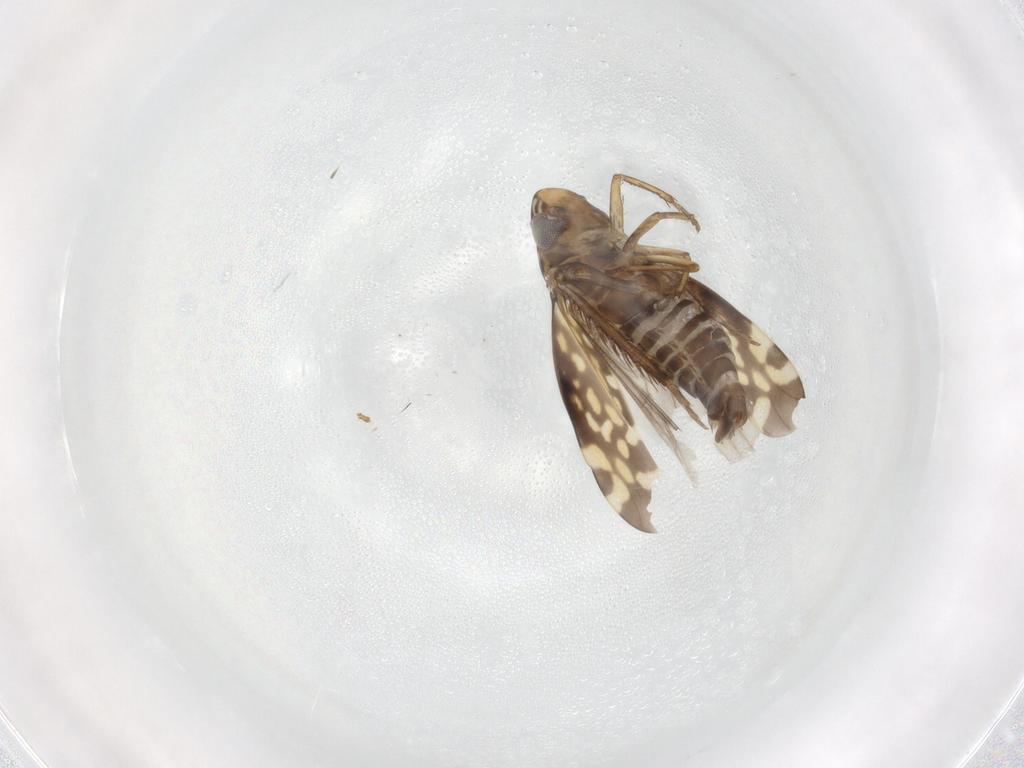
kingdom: Animalia
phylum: Arthropoda
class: Insecta
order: Hemiptera
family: Cicadellidae
